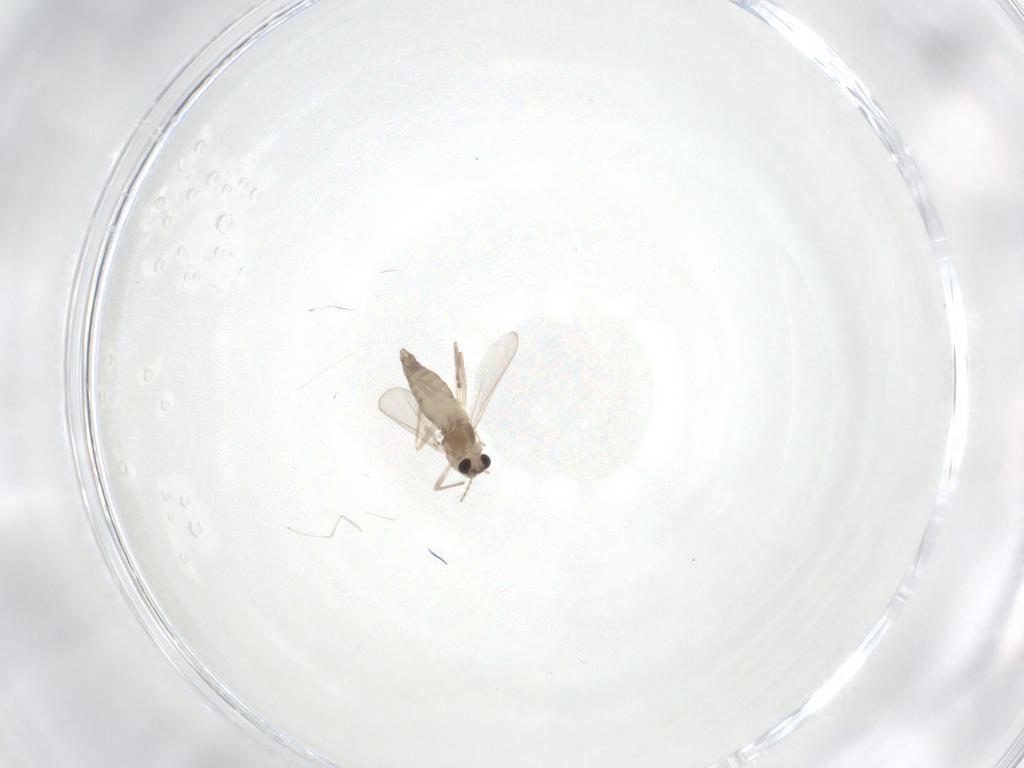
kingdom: Animalia
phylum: Arthropoda
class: Insecta
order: Diptera
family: Chironomidae
